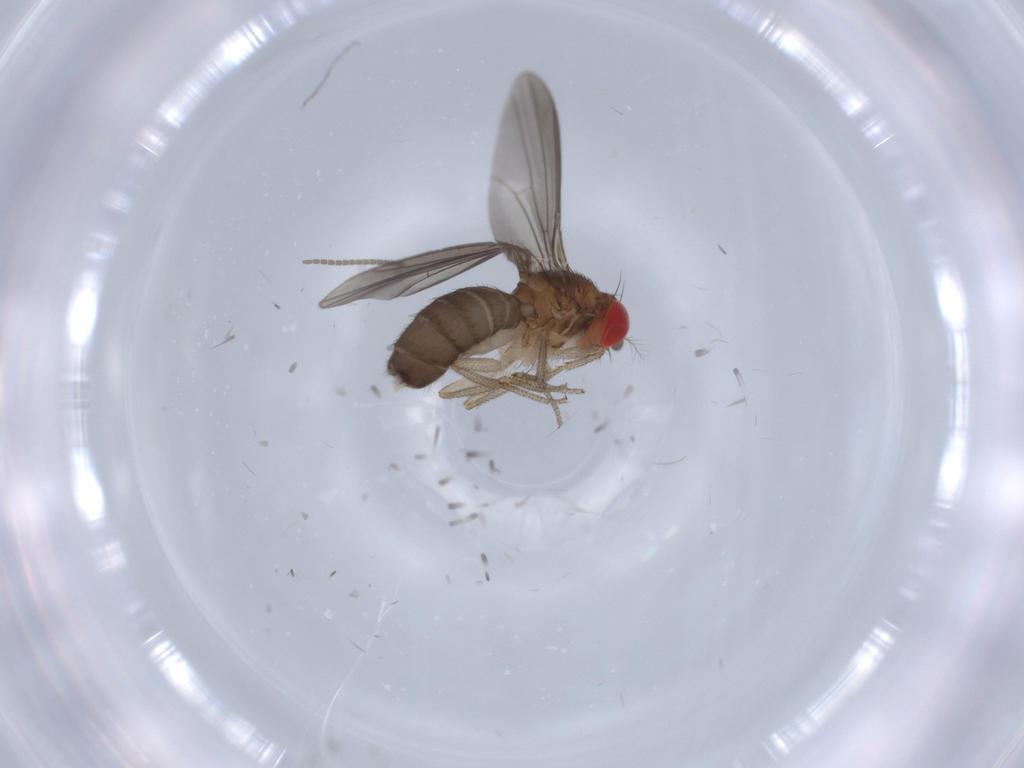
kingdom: Animalia
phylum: Arthropoda
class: Insecta
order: Diptera
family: Drosophilidae
